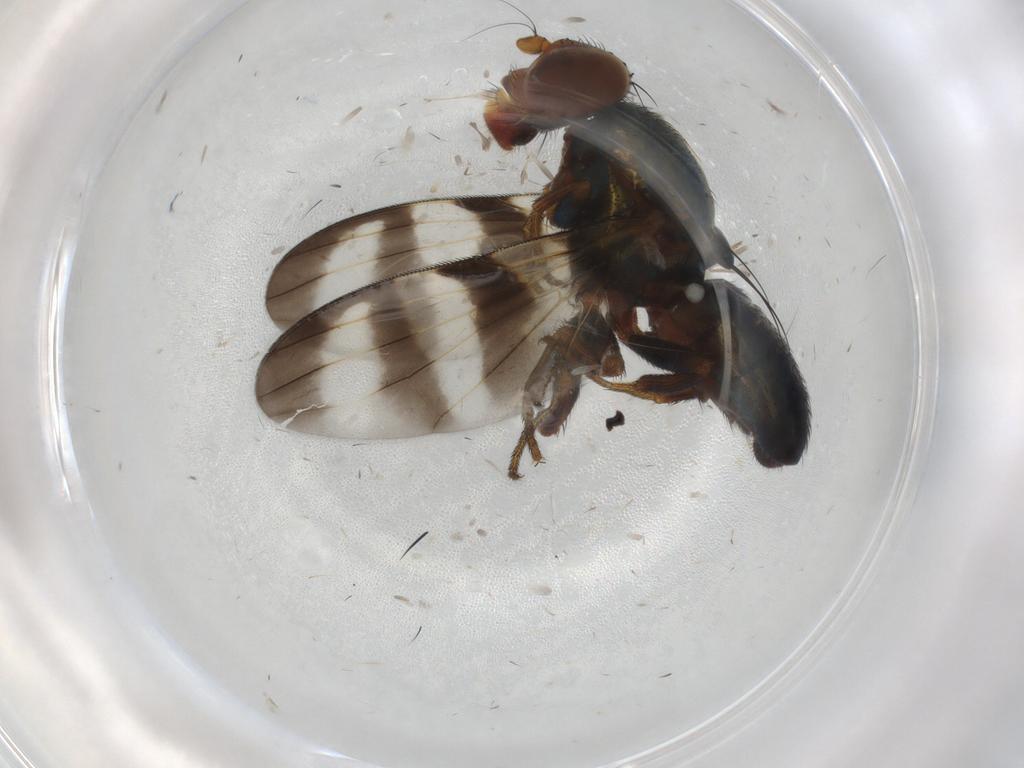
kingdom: Animalia
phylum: Arthropoda
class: Insecta
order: Diptera
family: Ulidiidae
